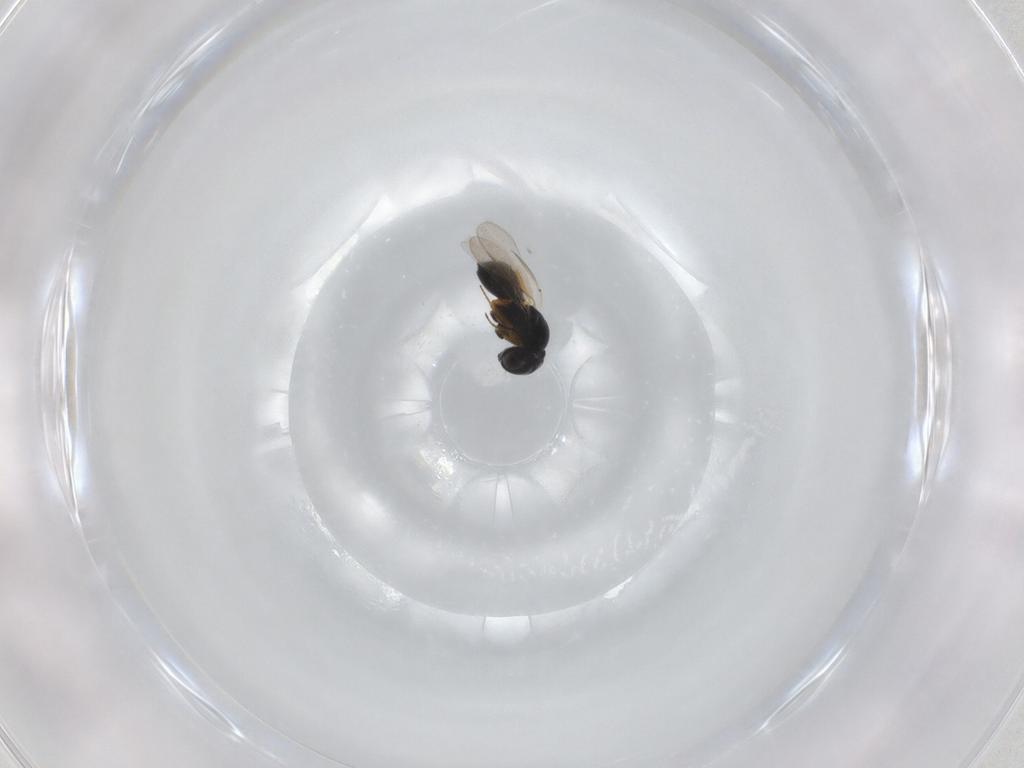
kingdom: Animalia
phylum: Arthropoda
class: Insecta
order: Hymenoptera
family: Scelionidae
